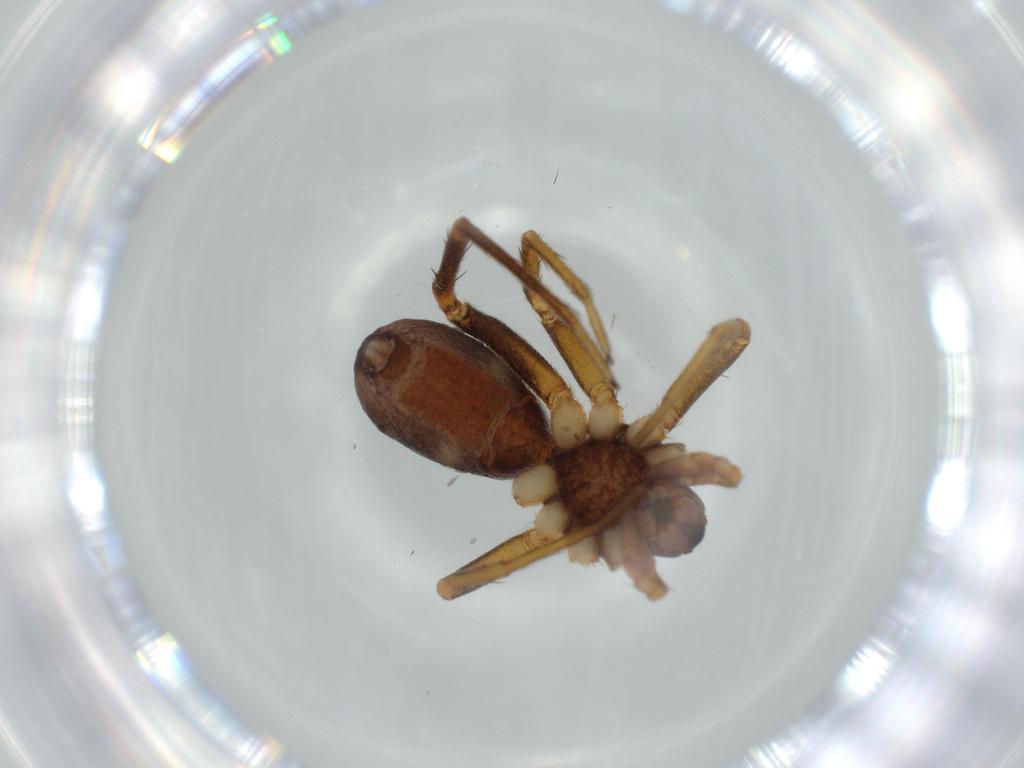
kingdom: Animalia
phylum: Arthropoda
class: Arachnida
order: Araneae
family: Corinnidae
